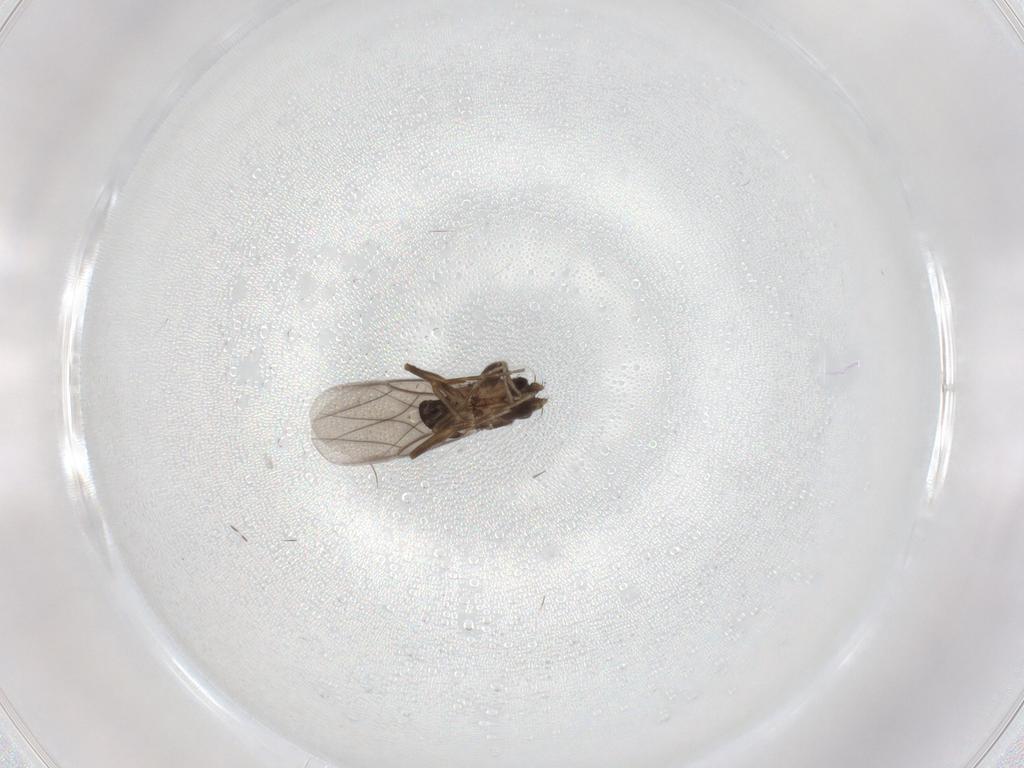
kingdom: Animalia
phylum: Arthropoda
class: Insecta
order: Diptera
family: Cecidomyiidae
